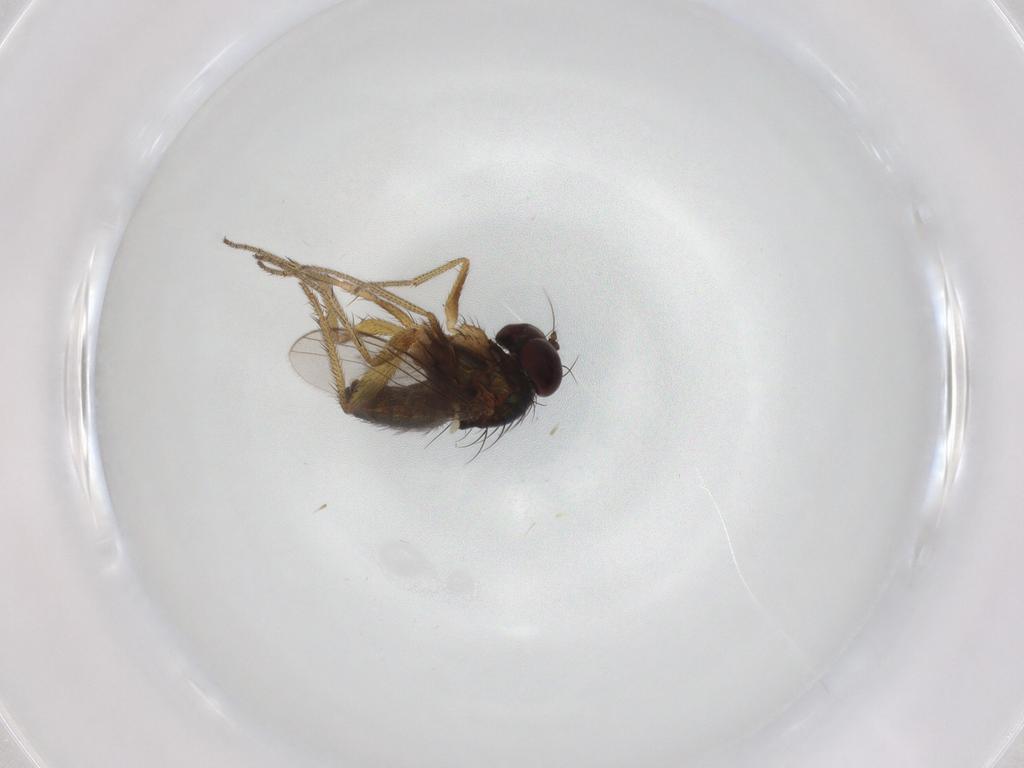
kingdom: Animalia
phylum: Arthropoda
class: Insecta
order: Diptera
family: Dolichopodidae
